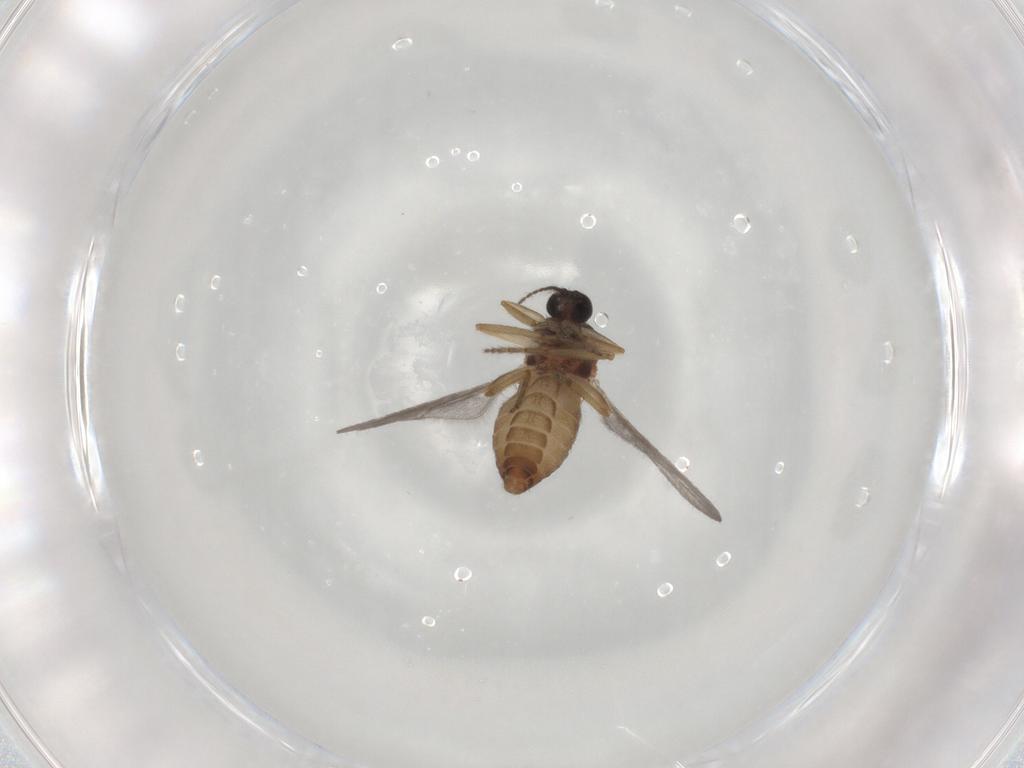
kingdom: Animalia
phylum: Arthropoda
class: Insecta
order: Diptera
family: Ceratopogonidae
